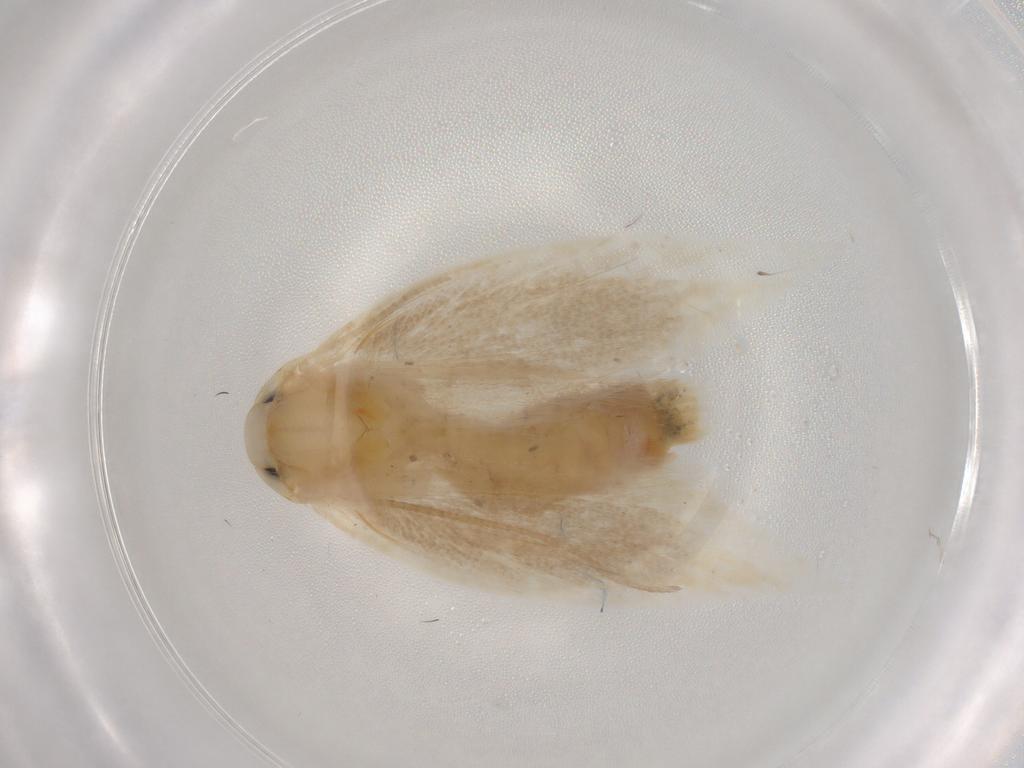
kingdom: Animalia
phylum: Arthropoda
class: Insecta
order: Lepidoptera
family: Geometridae
